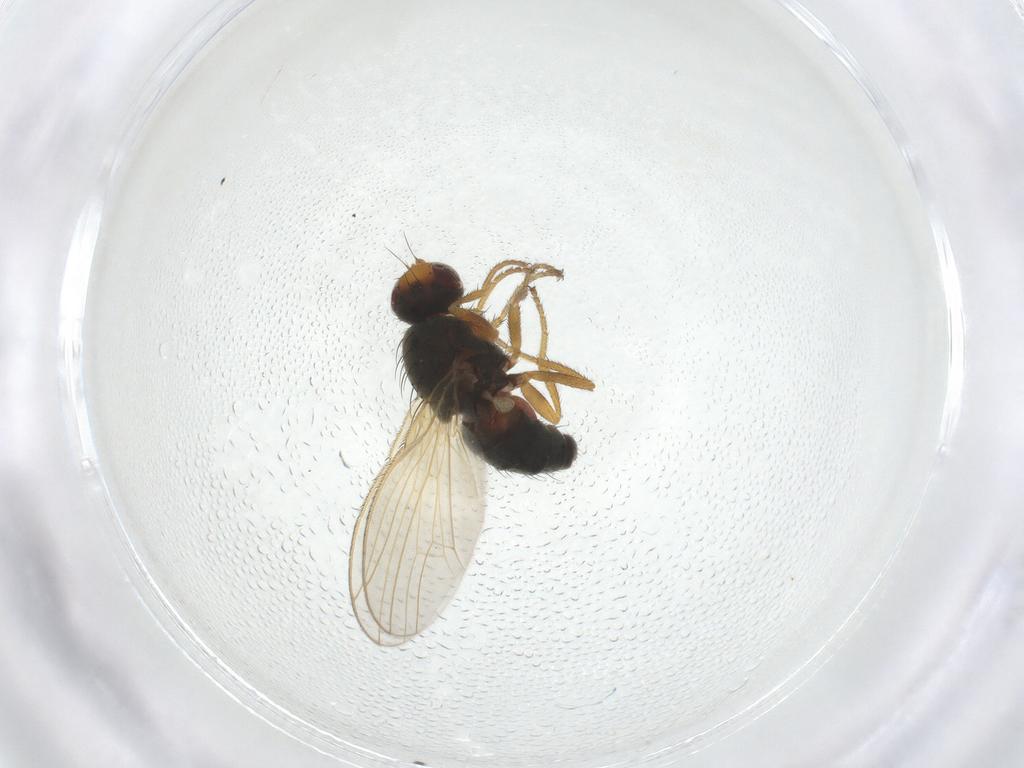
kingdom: Animalia
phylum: Arthropoda
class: Insecta
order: Diptera
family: Heleomyzidae
